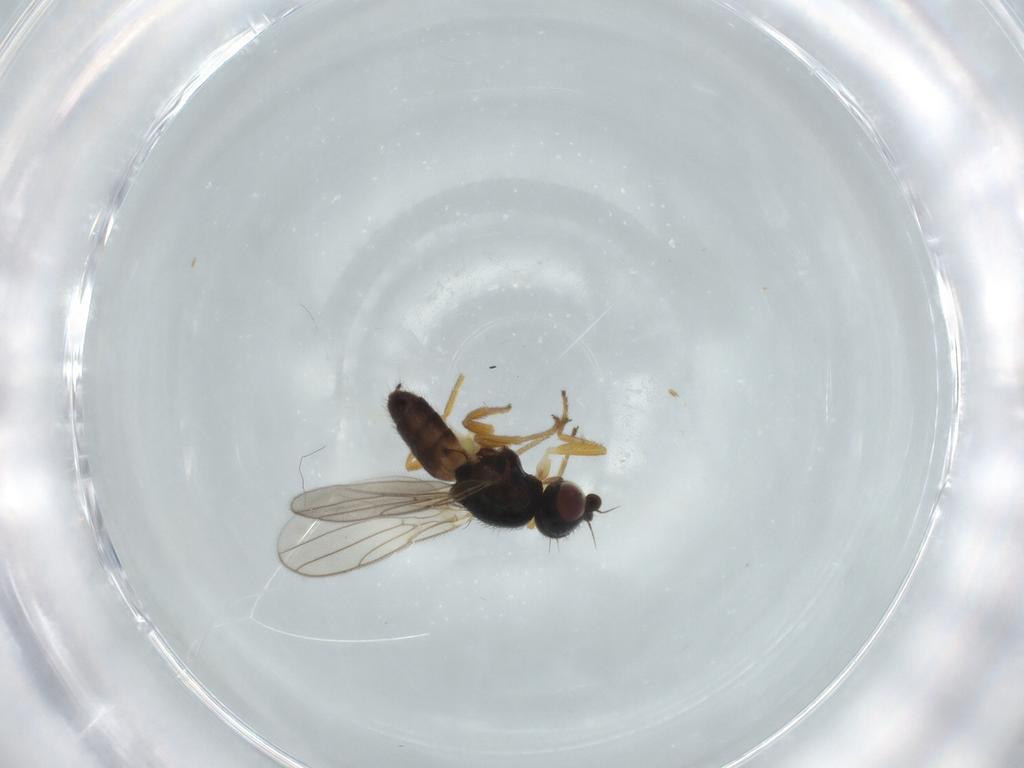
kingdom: Animalia
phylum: Arthropoda
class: Insecta
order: Diptera
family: Chloropidae
